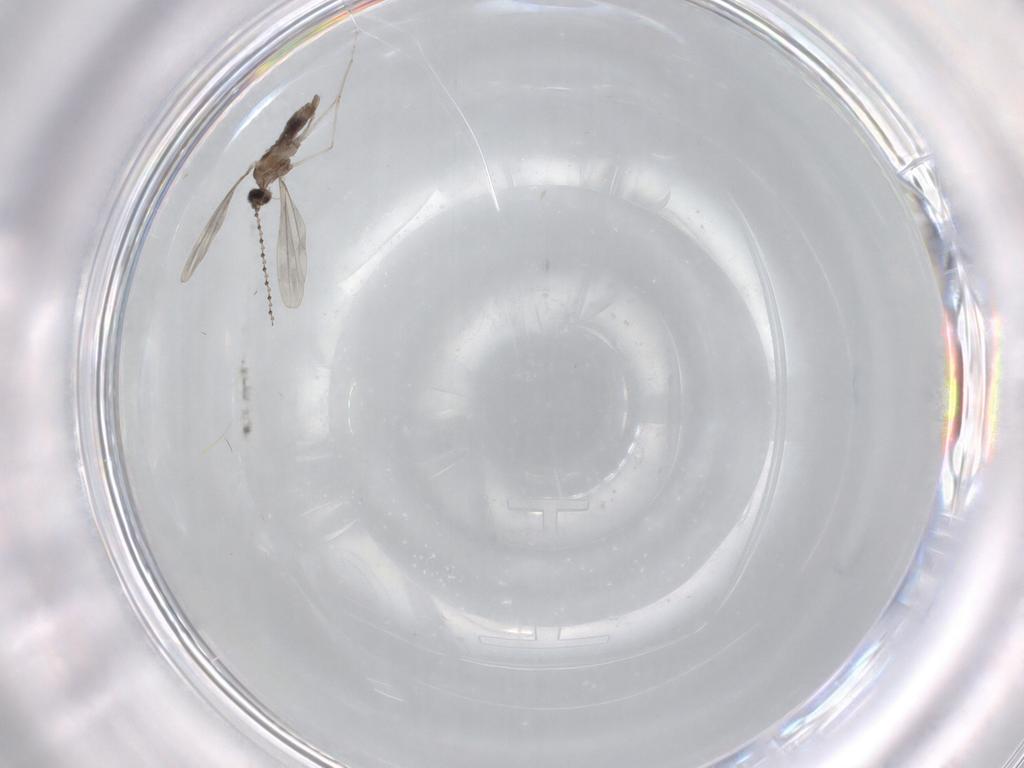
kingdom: Animalia
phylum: Arthropoda
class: Insecta
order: Diptera
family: Cecidomyiidae
